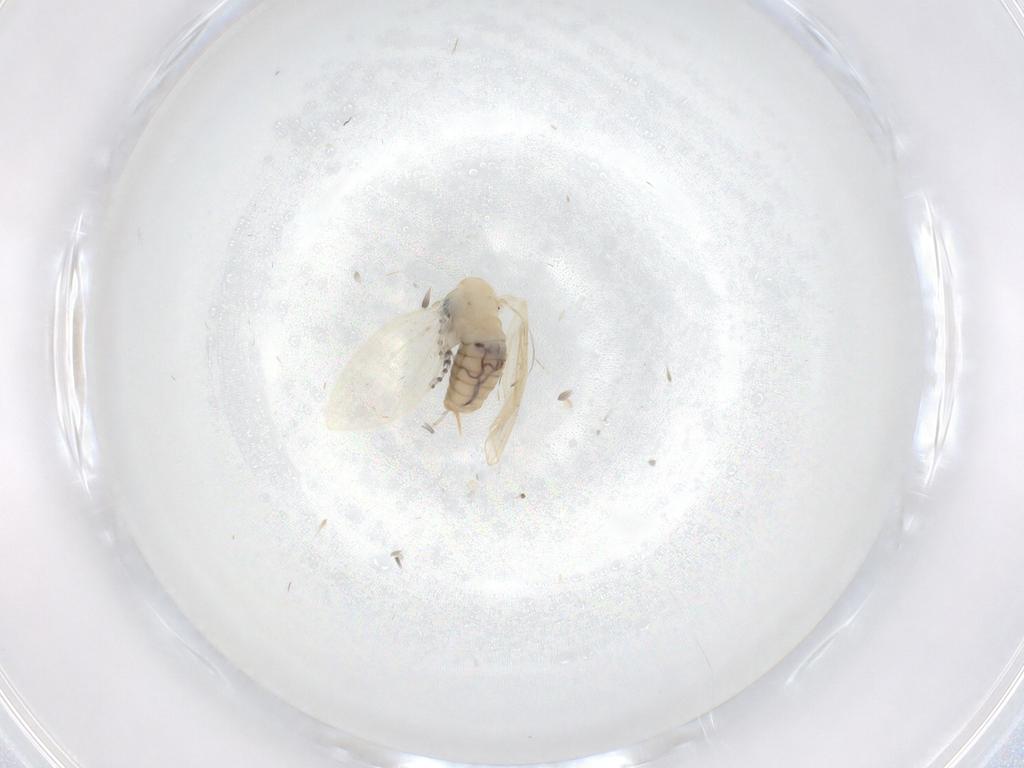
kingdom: Animalia
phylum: Arthropoda
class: Insecta
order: Diptera
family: Psychodidae
